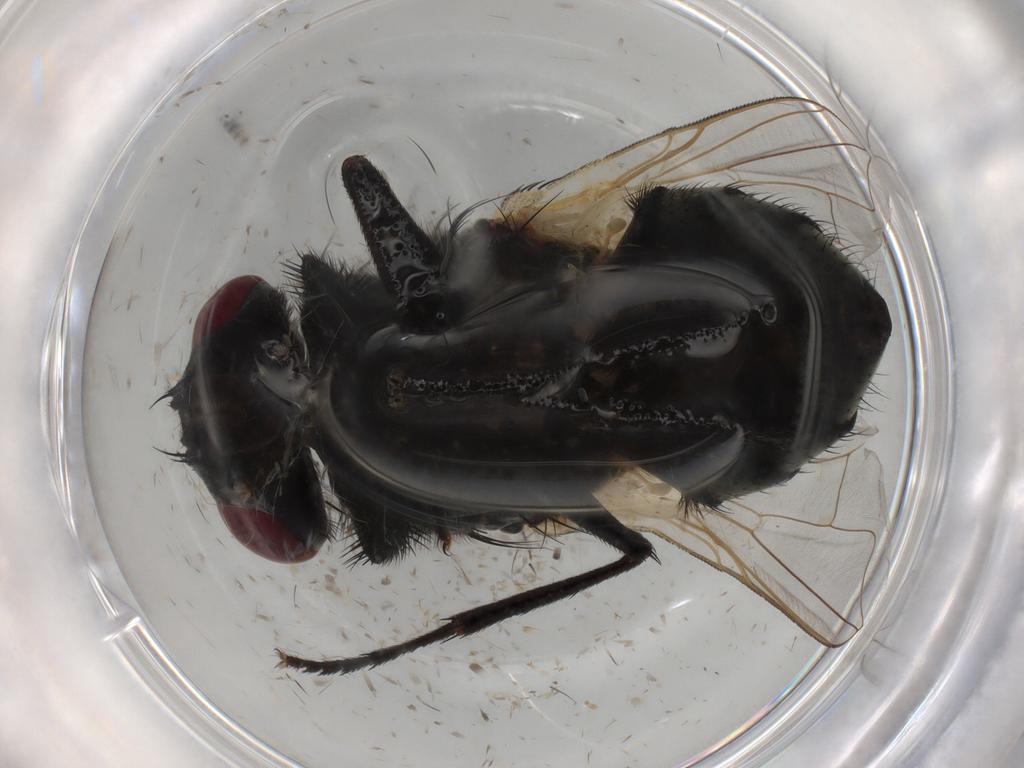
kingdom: Animalia
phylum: Arthropoda
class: Insecta
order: Diptera
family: Muscidae
